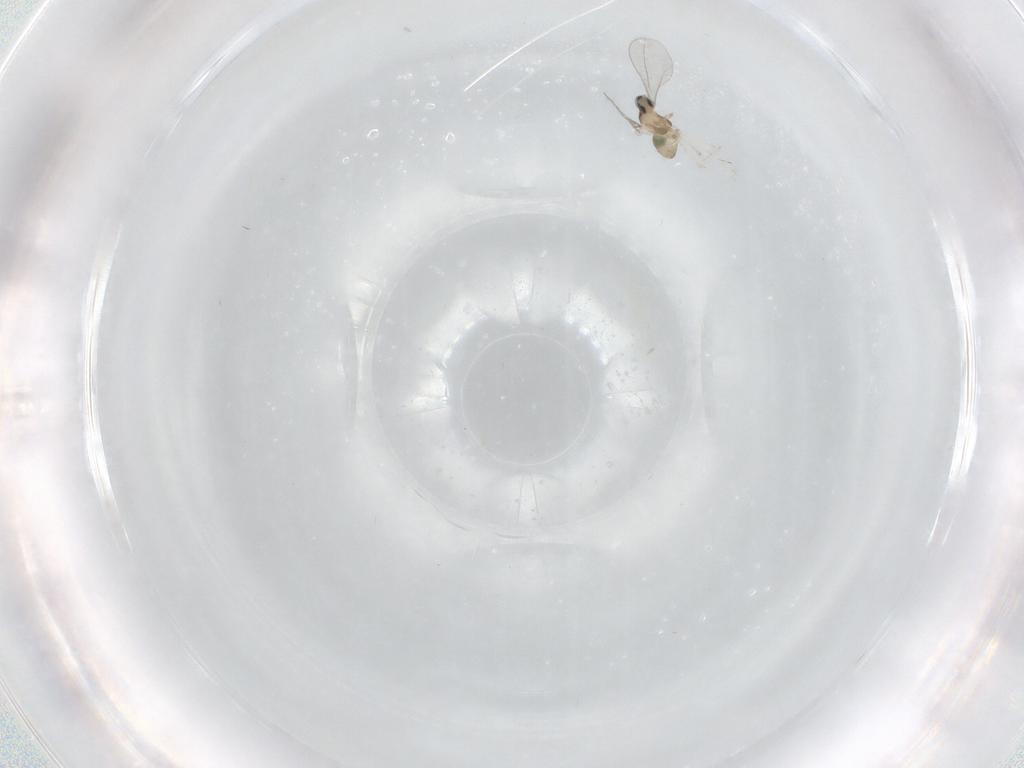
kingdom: Animalia
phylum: Arthropoda
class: Insecta
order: Diptera
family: Cecidomyiidae
